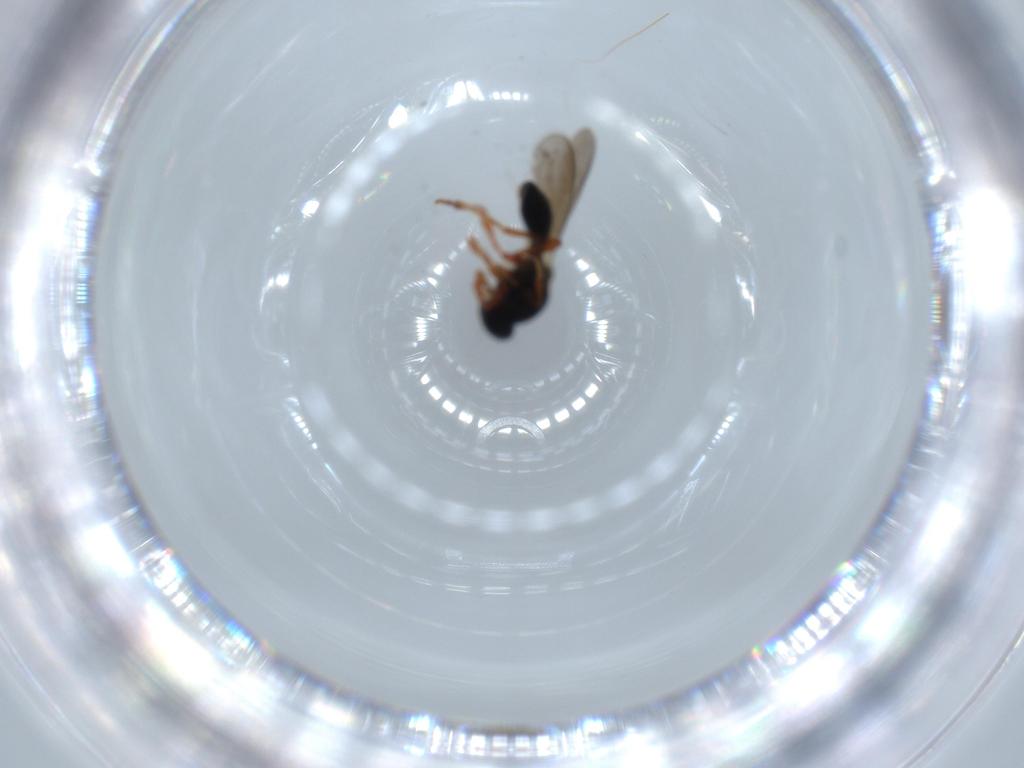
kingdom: Animalia
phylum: Arthropoda
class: Insecta
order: Hymenoptera
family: Platygastridae
